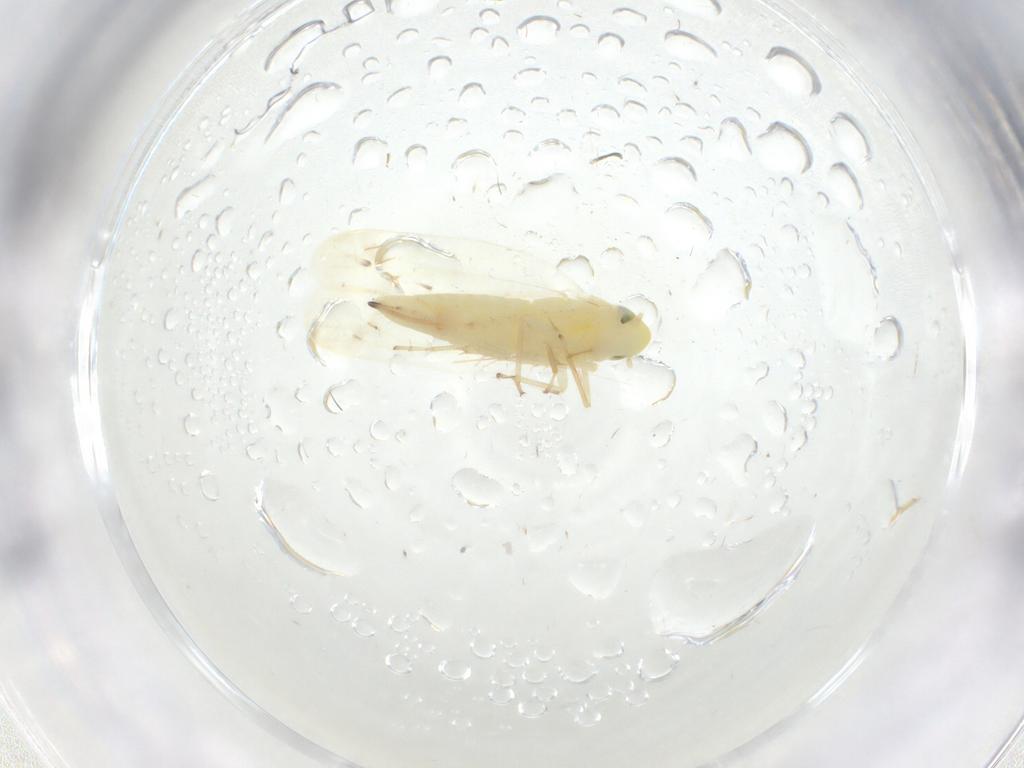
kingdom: Animalia
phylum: Arthropoda
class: Insecta
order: Hemiptera
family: Cicadellidae
